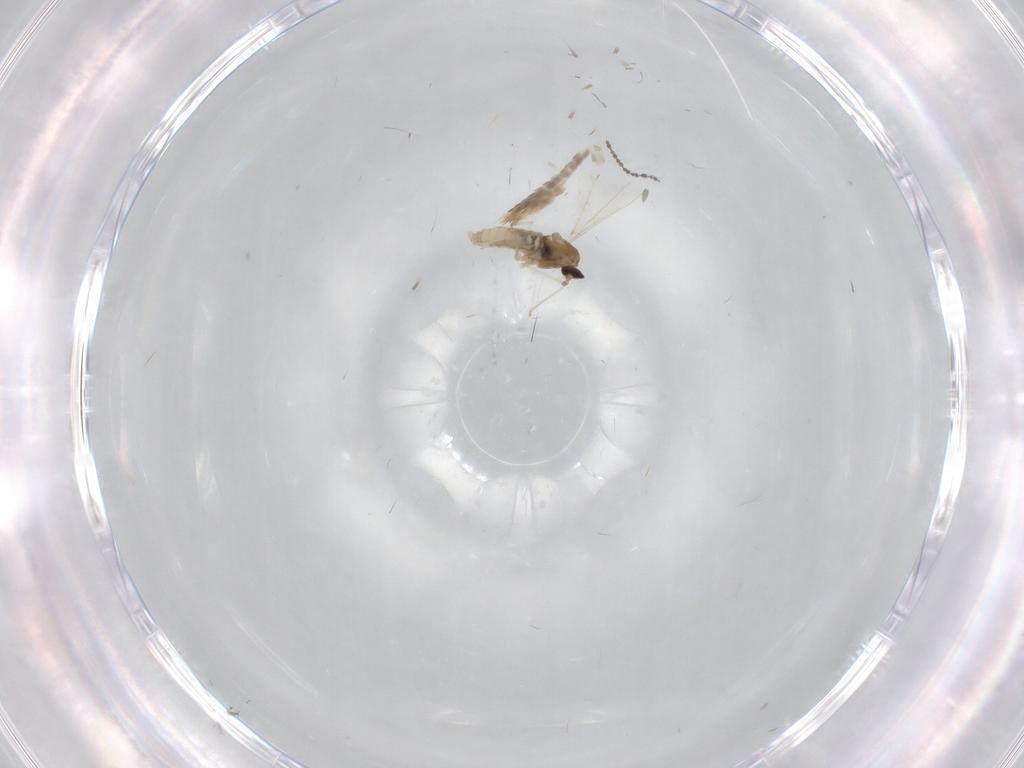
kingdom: Animalia
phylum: Arthropoda
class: Insecta
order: Diptera
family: Cecidomyiidae
